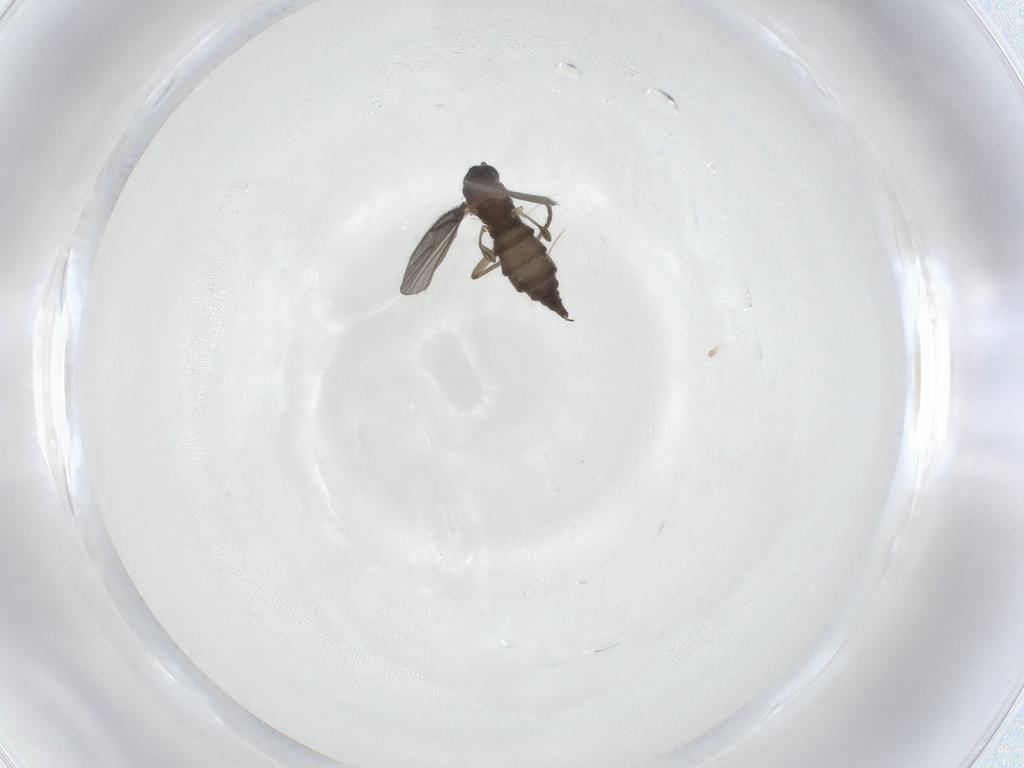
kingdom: Animalia
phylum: Arthropoda
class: Insecta
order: Diptera
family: Sciaridae
